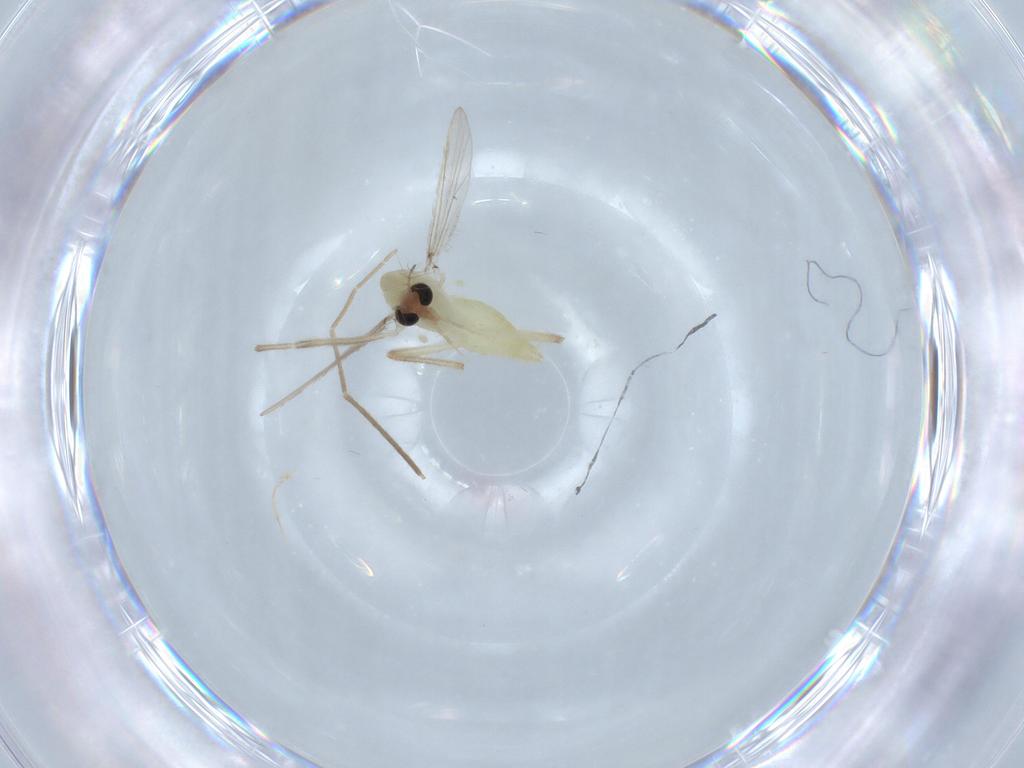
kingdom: Animalia
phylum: Arthropoda
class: Insecta
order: Diptera
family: Chironomidae
